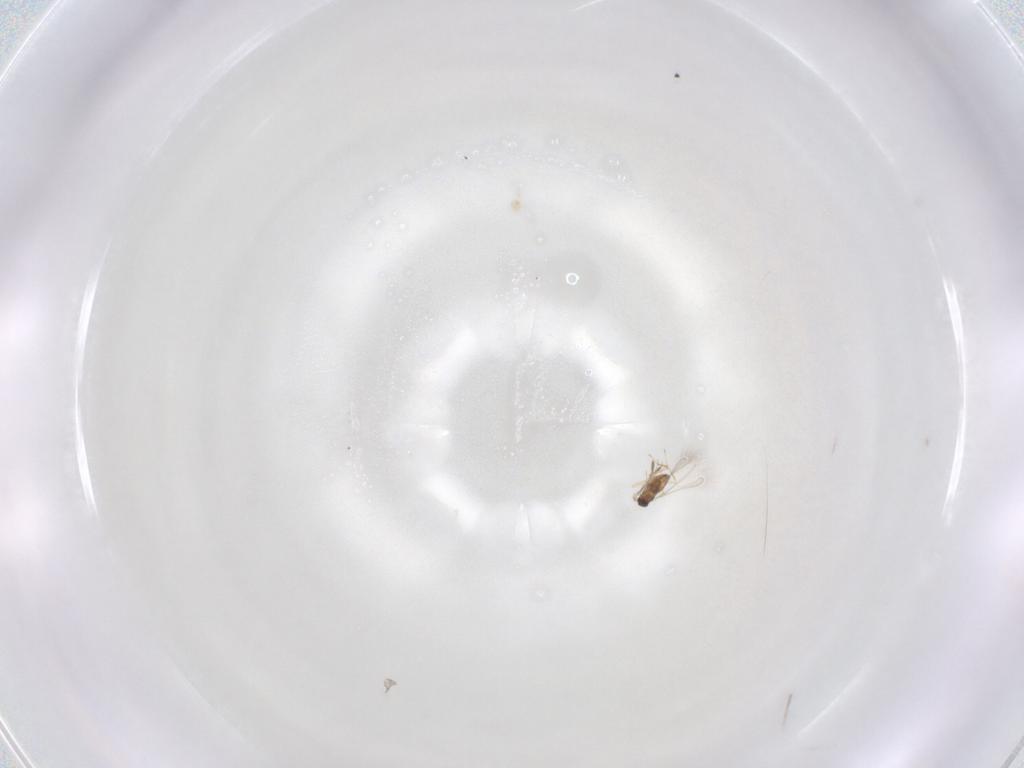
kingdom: Animalia
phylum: Arthropoda
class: Insecta
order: Hymenoptera
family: Mymaridae
